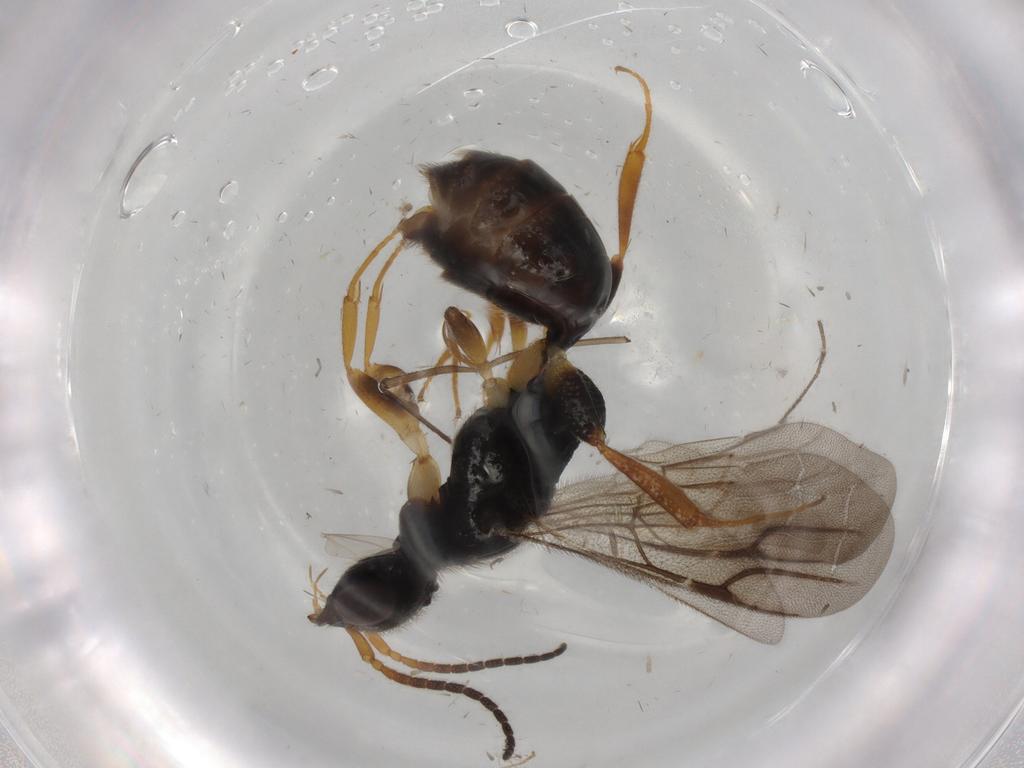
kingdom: Animalia
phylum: Arthropoda
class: Insecta
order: Hymenoptera
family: Bethylidae
